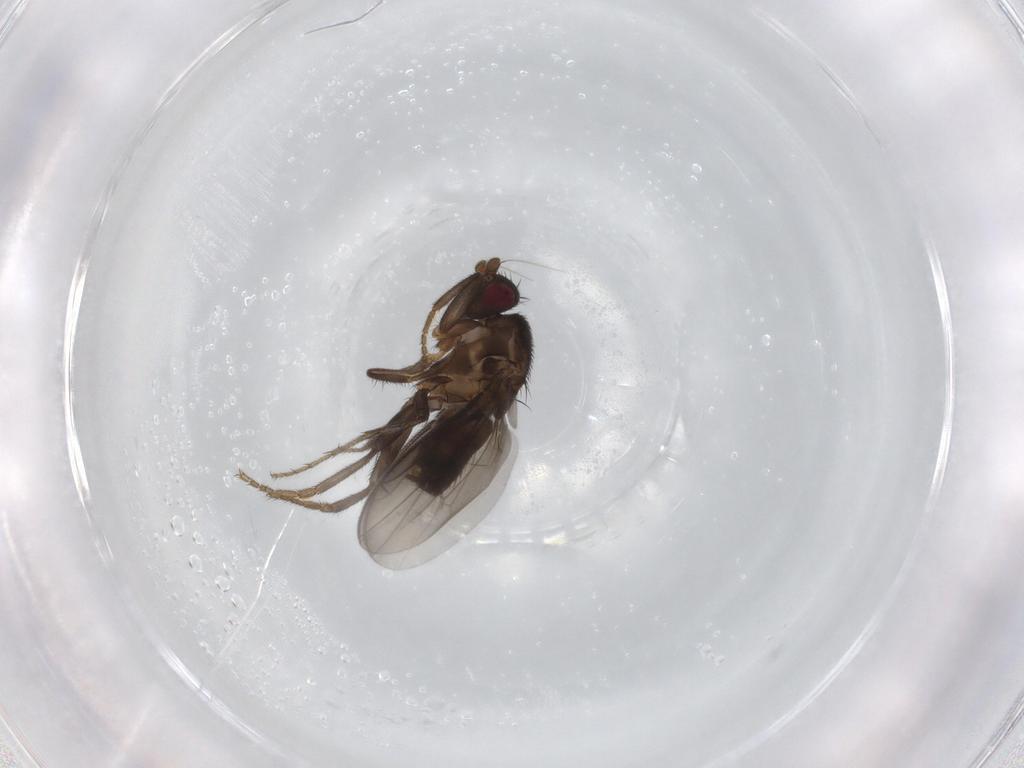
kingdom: Animalia
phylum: Arthropoda
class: Insecta
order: Diptera
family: Sphaeroceridae
